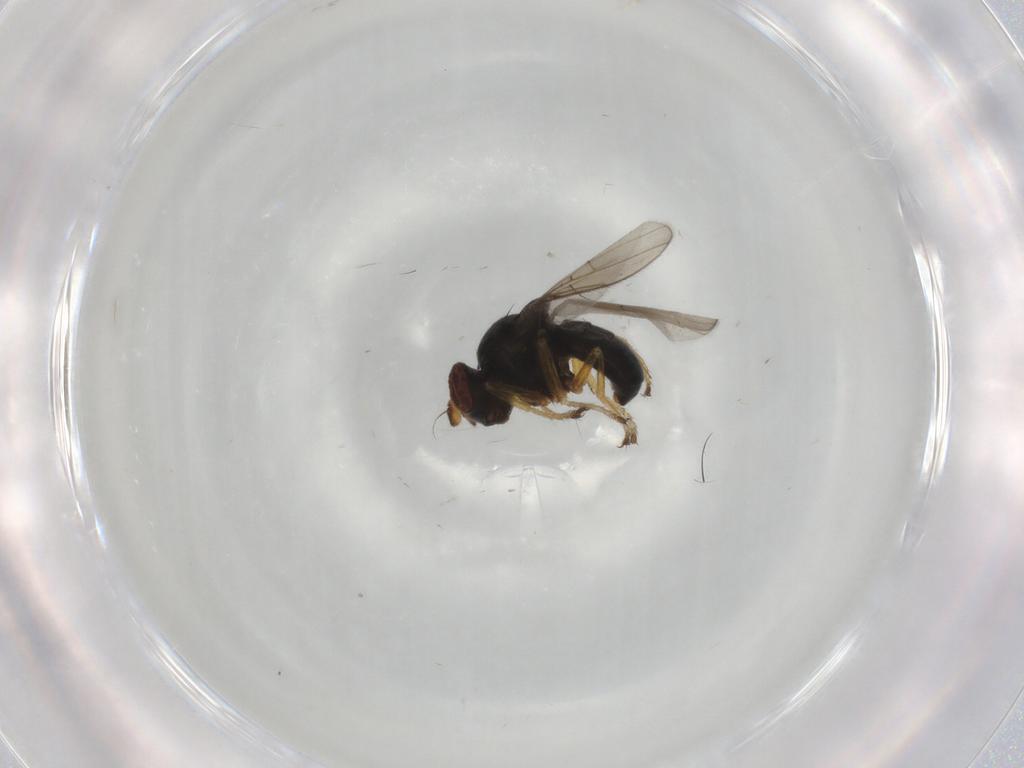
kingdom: Animalia
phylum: Arthropoda
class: Insecta
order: Diptera
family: Ephydridae
